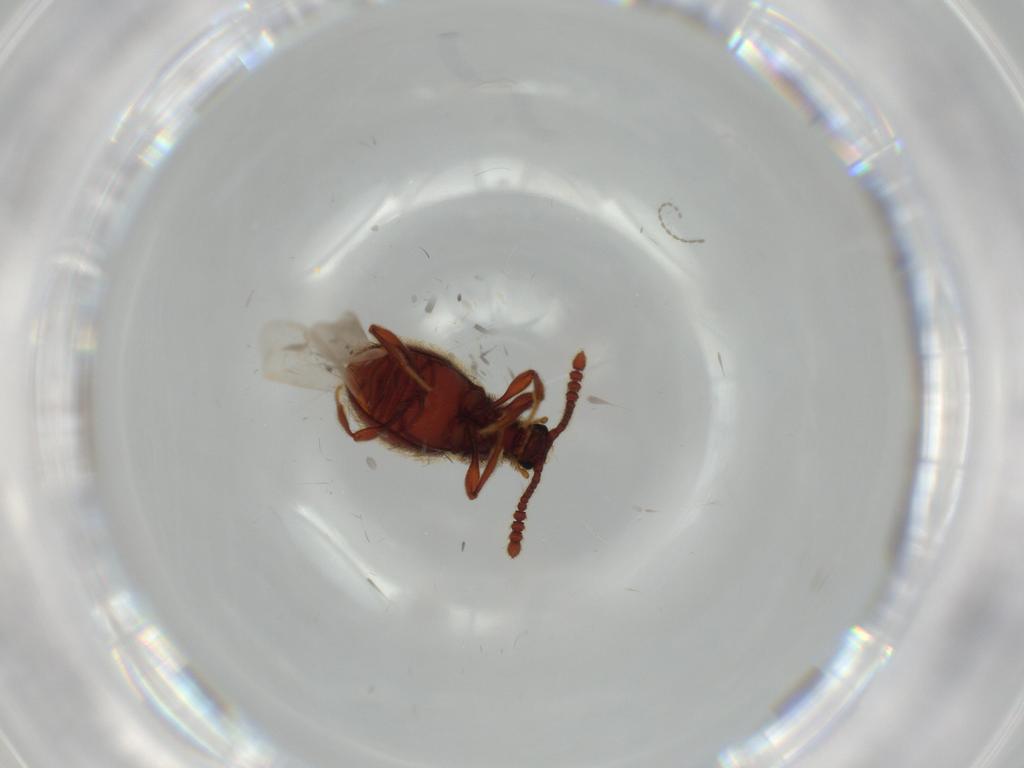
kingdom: Animalia
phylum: Arthropoda
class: Insecta
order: Coleoptera
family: Staphylinidae
